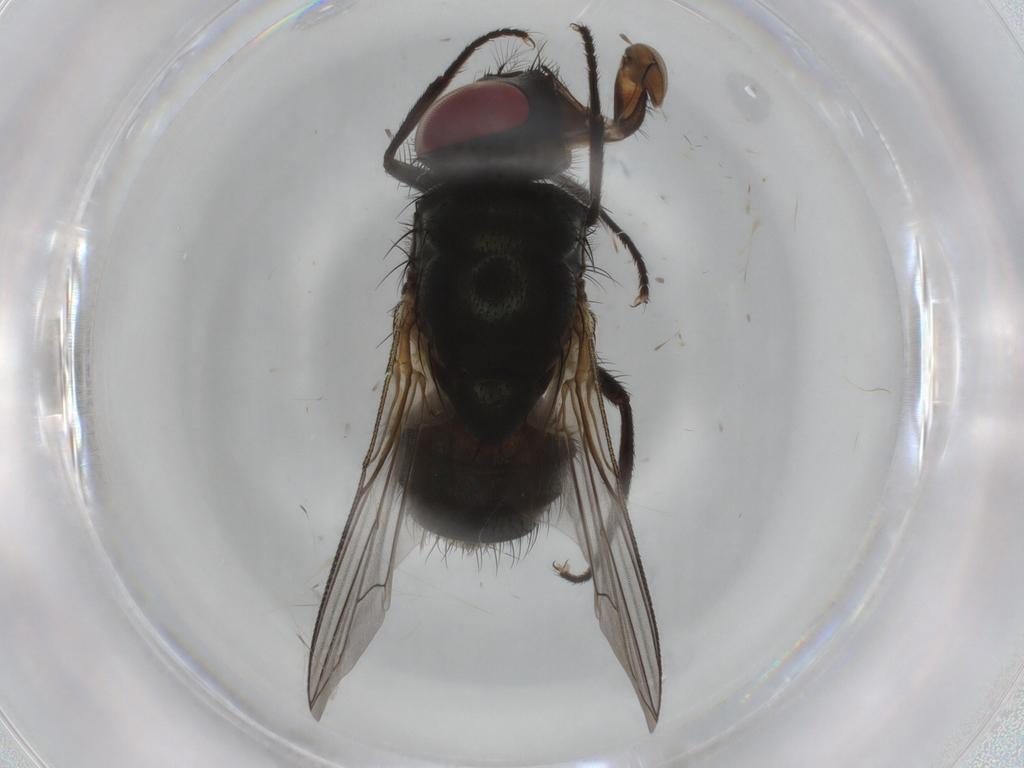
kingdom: Animalia
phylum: Arthropoda
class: Insecta
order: Diptera
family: Muscidae
